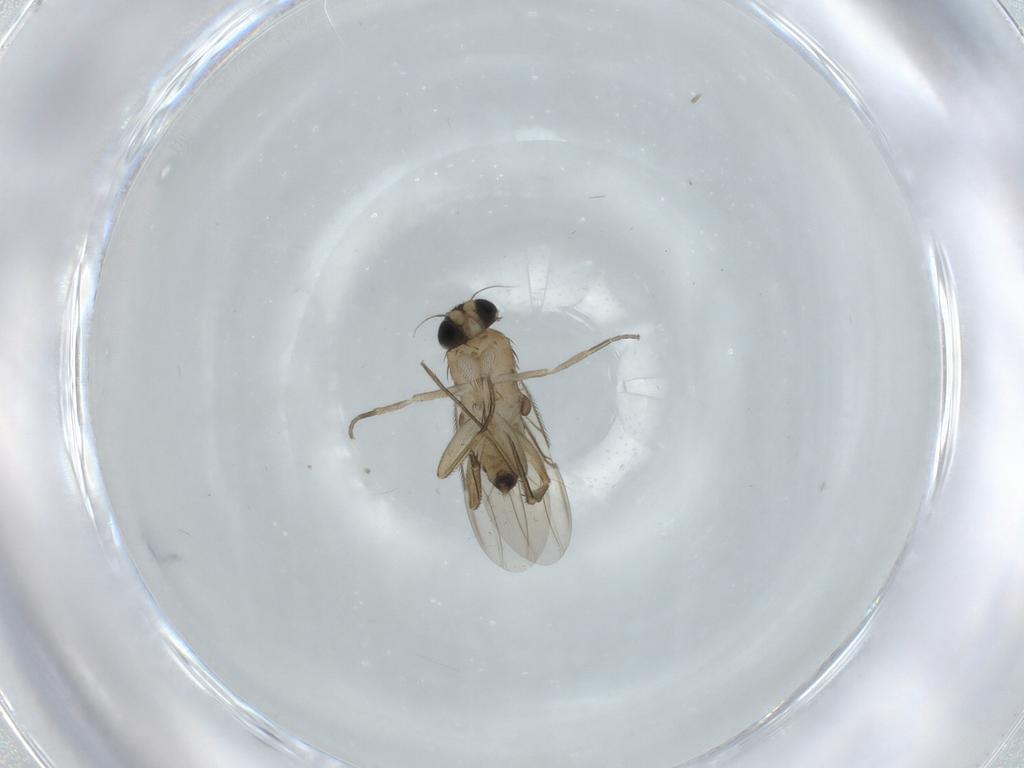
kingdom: Animalia
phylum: Arthropoda
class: Insecta
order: Diptera
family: Phoridae
